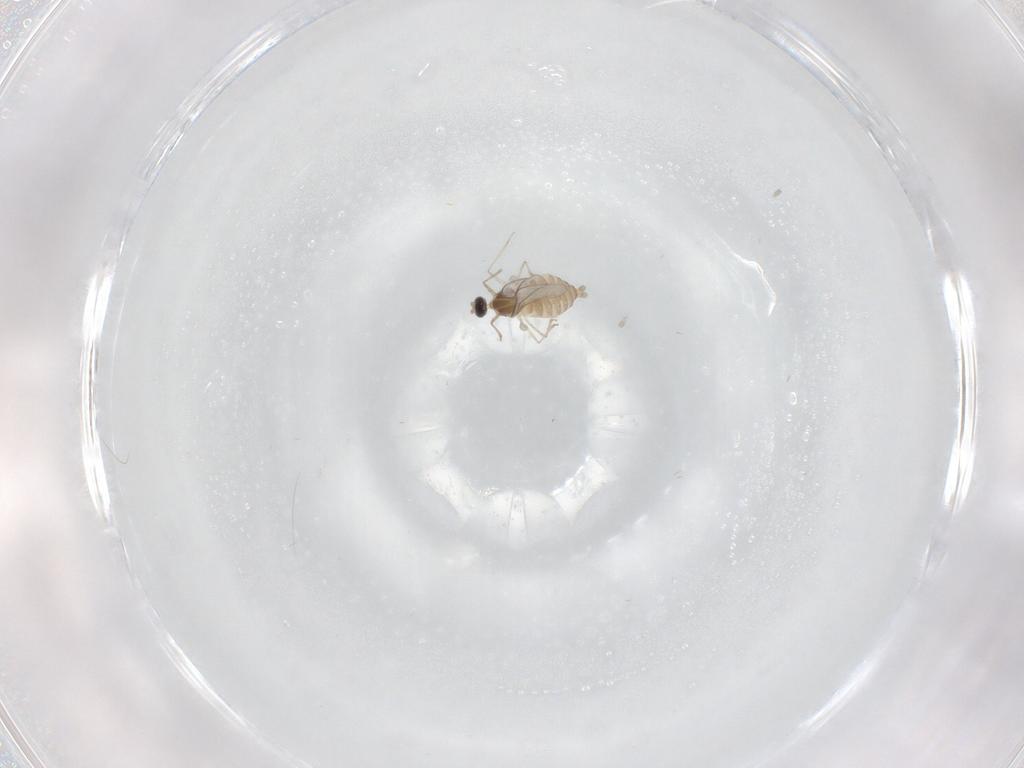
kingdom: Animalia
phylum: Arthropoda
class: Insecta
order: Diptera
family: Cecidomyiidae
